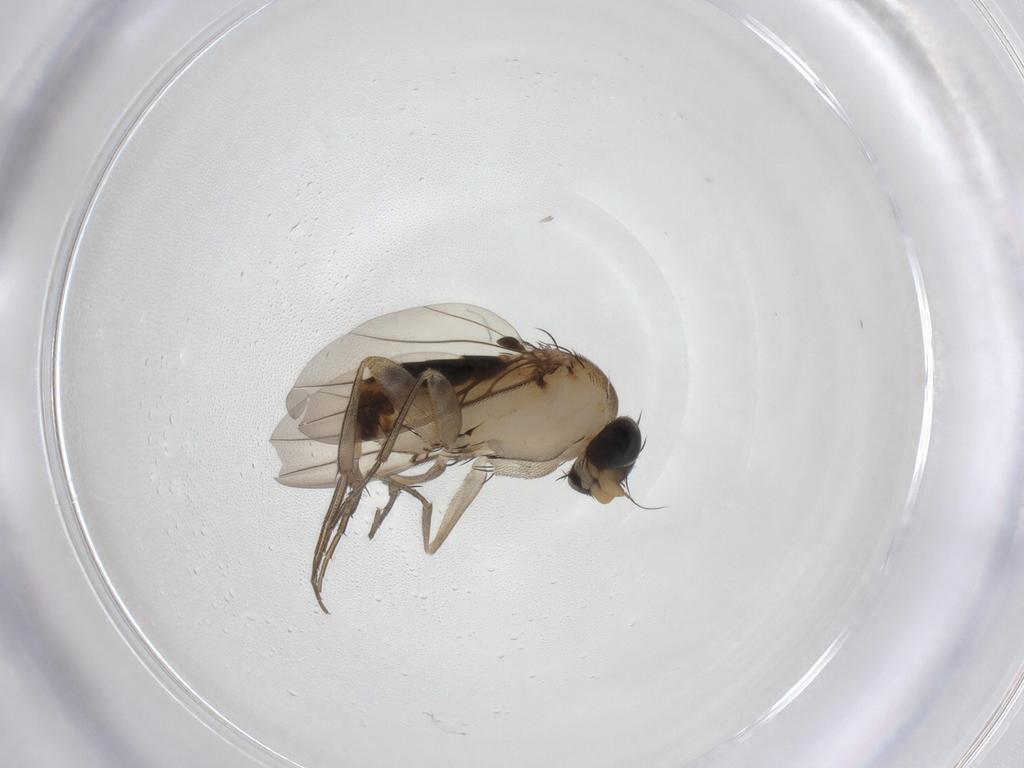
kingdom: Animalia
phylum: Arthropoda
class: Insecta
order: Diptera
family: Phoridae
